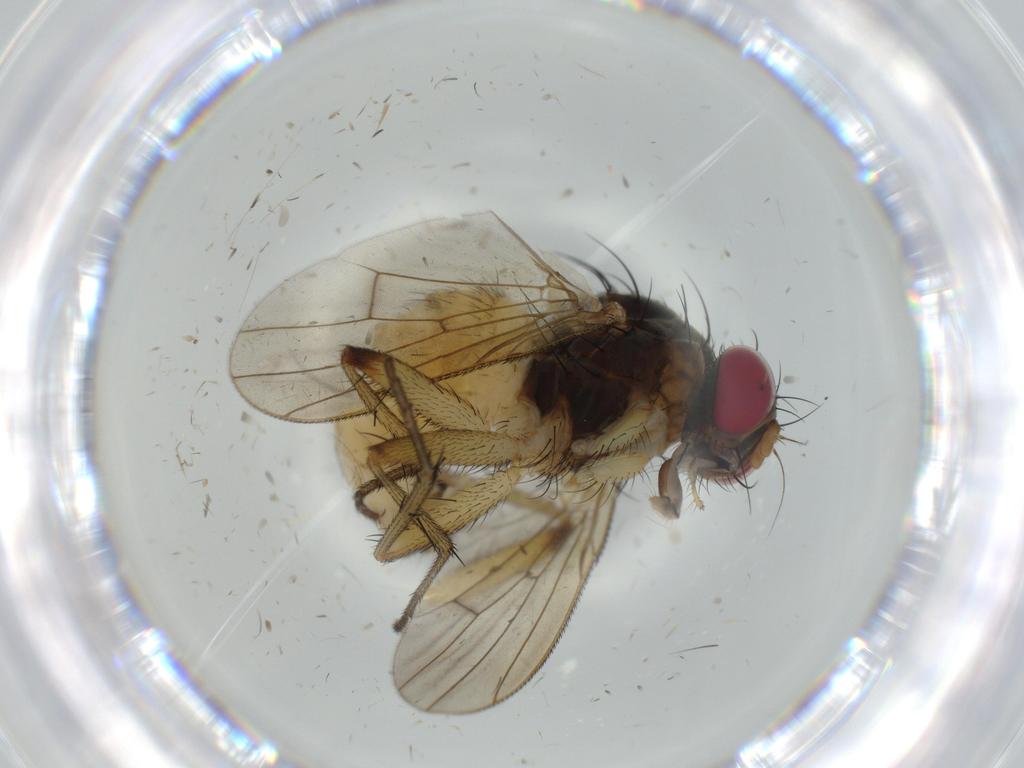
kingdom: Animalia
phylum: Arthropoda
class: Insecta
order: Diptera
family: Muscidae
